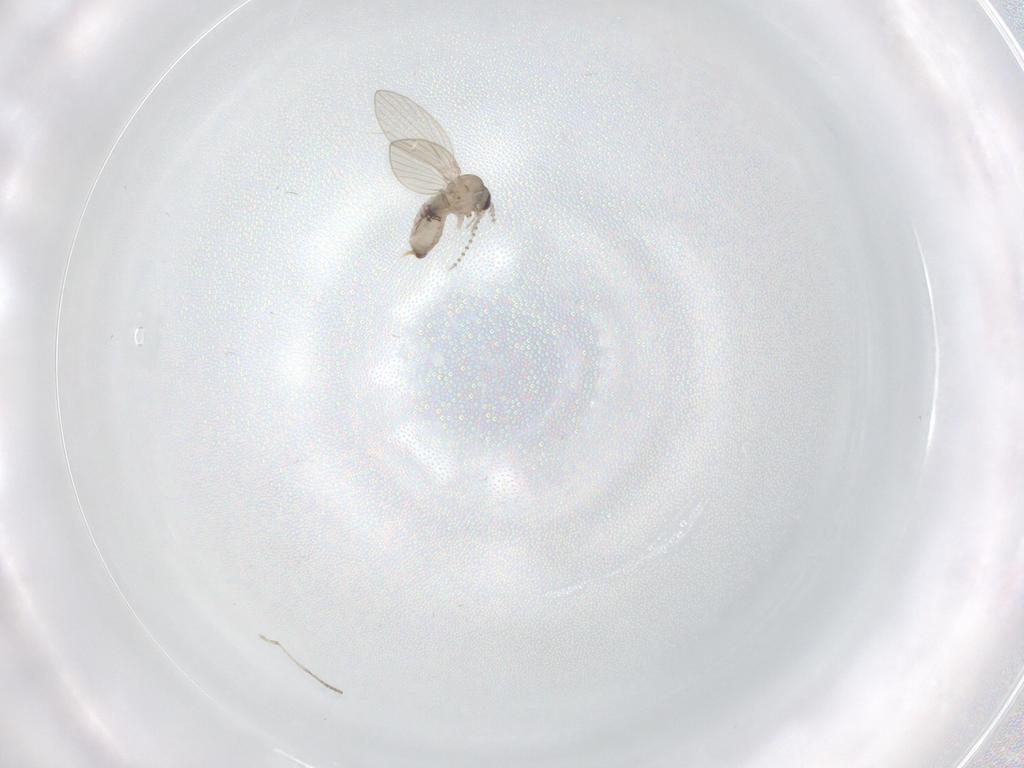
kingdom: Animalia
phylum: Arthropoda
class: Insecta
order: Diptera
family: Psychodidae
